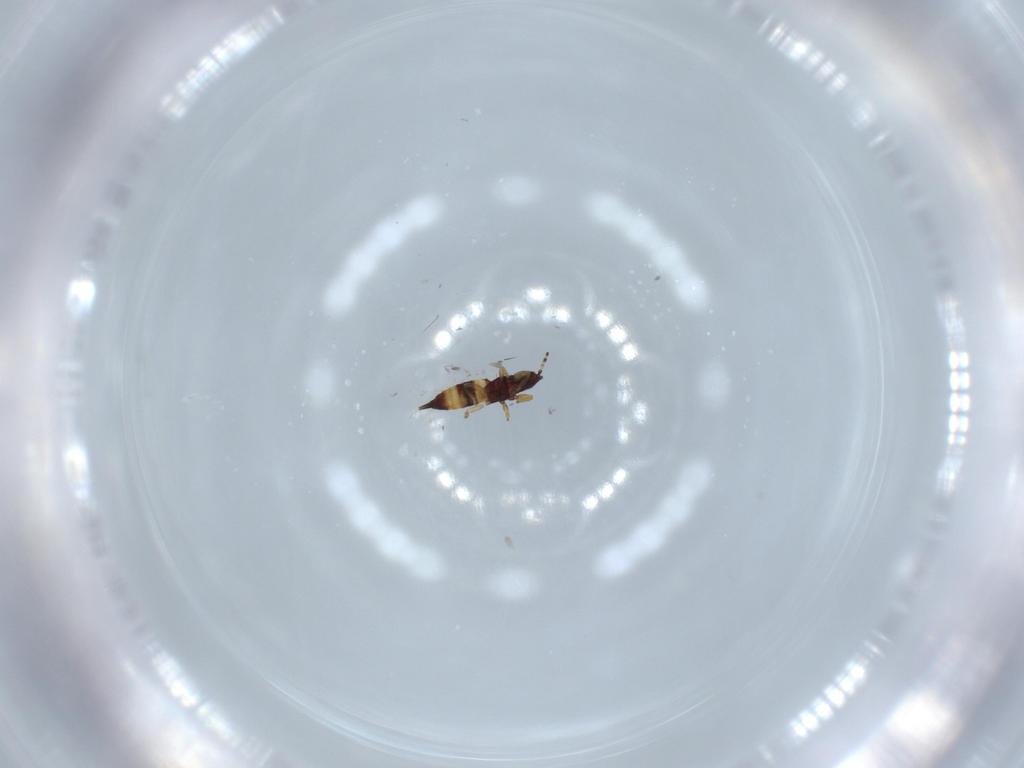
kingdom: Animalia
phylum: Arthropoda
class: Insecta
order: Thysanoptera
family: Phlaeothripidae
